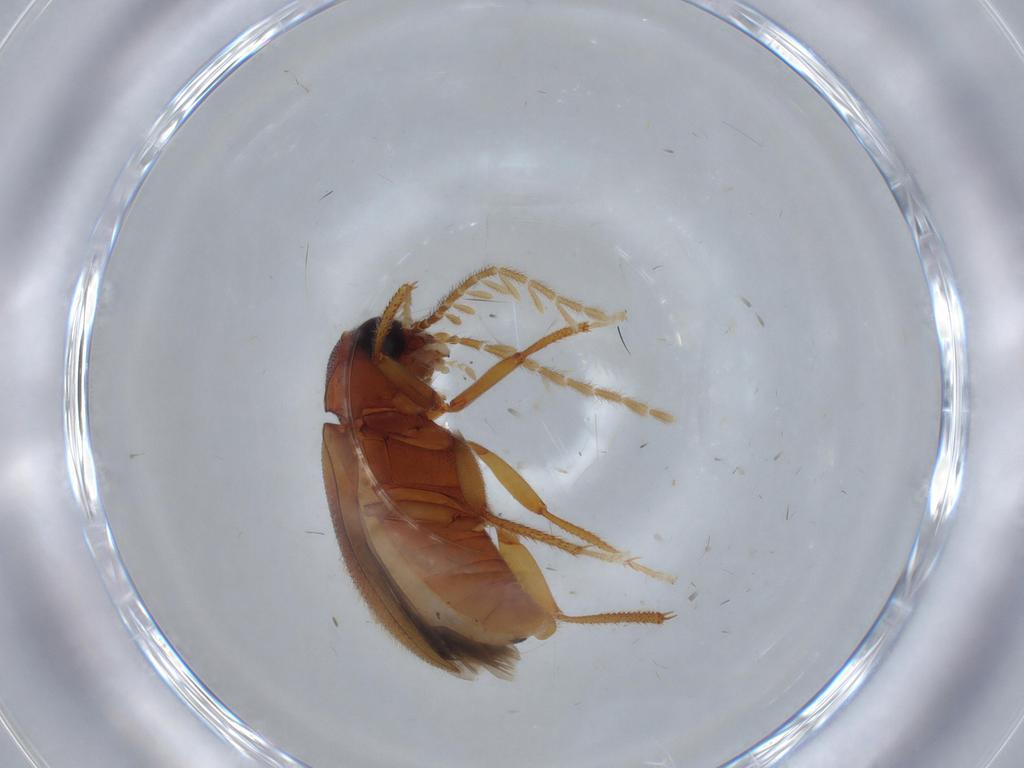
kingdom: Animalia
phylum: Arthropoda
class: Insecta
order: Coleoptera
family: Ptilodactylidae
